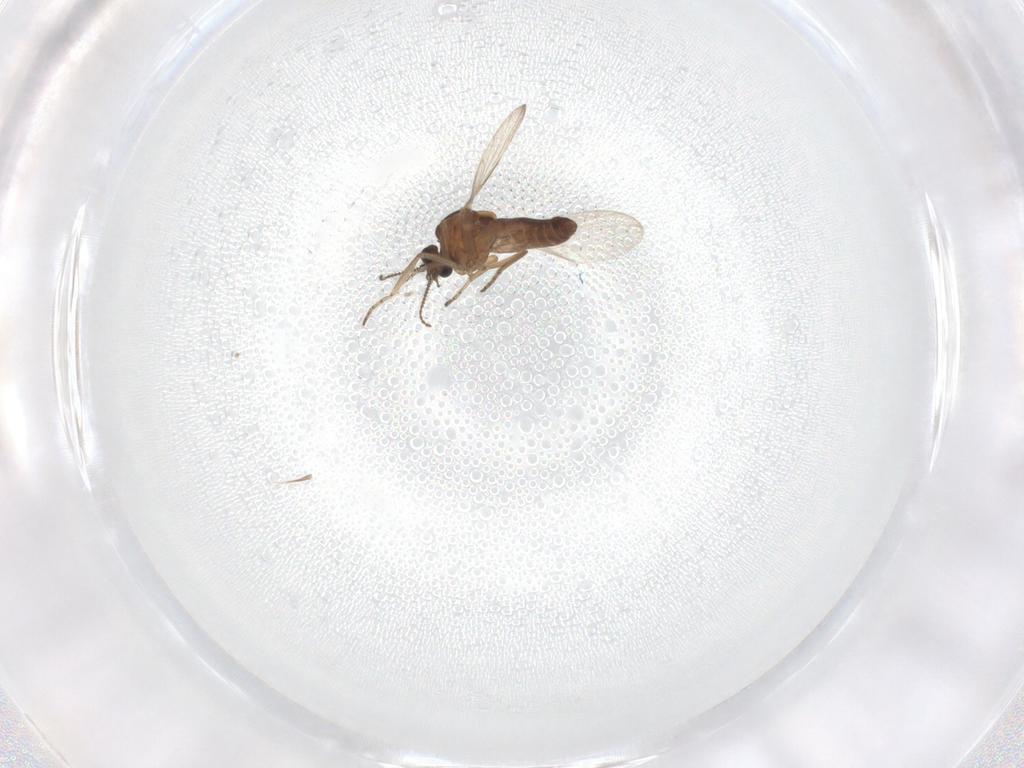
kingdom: Animalia
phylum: Arthropoda
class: Insecta
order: Diptera
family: Ceratopogonidae
